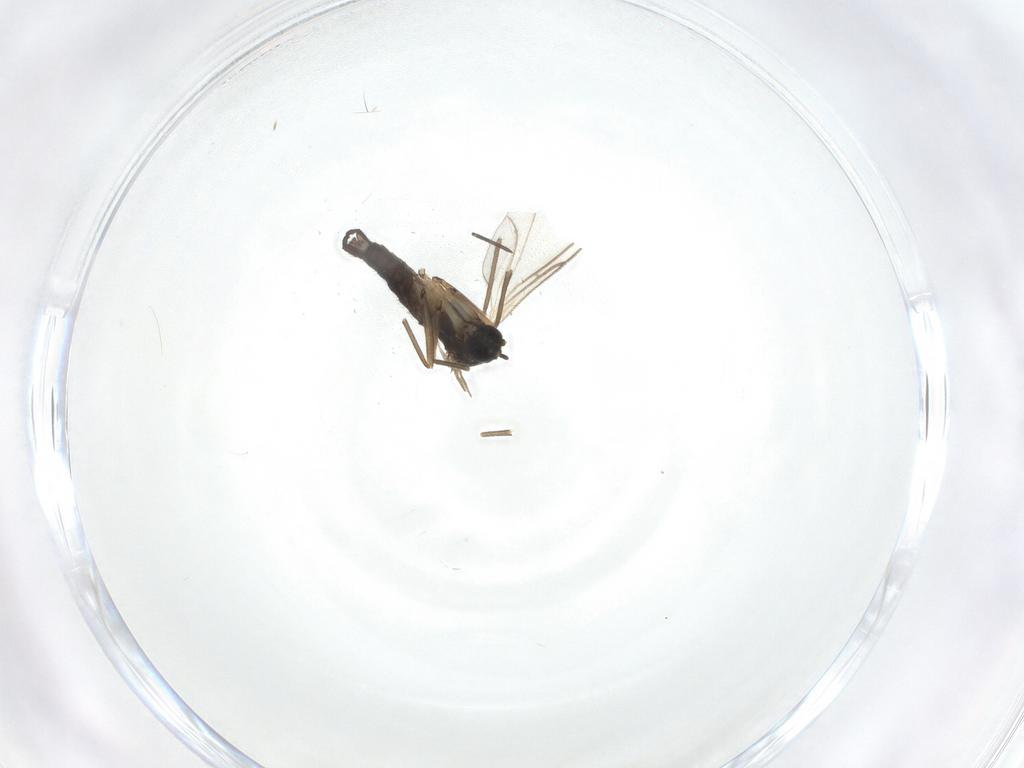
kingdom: Animalia
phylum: Arthropoda
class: Insecta
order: Diptera
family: Sciaridae
